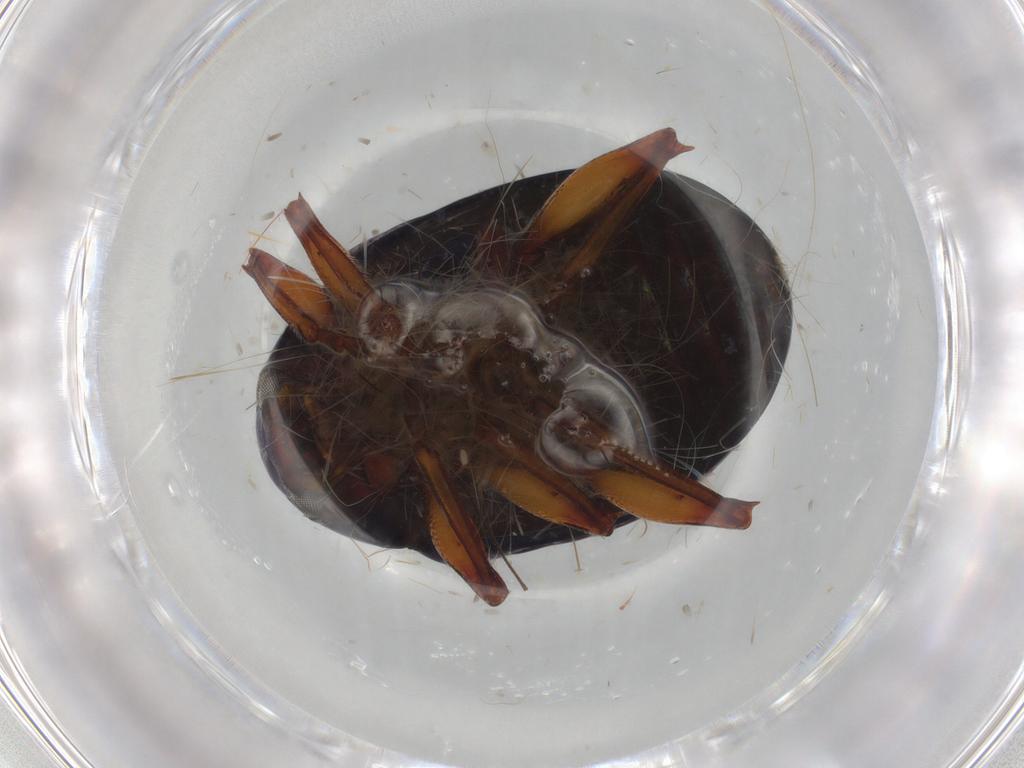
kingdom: Animalia
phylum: Arthropoda
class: Insecta
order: Coleoptera
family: Chrysomelidae
